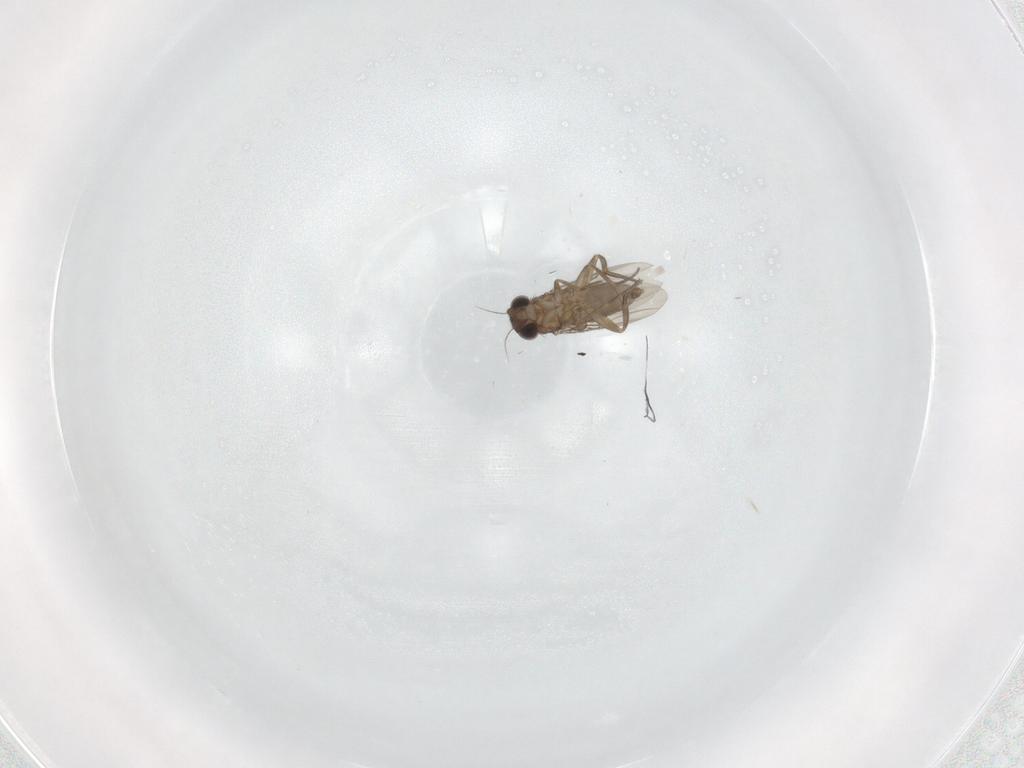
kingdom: Animalia
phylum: Arthropoda
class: Insecta
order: Diptera
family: Phoridae
